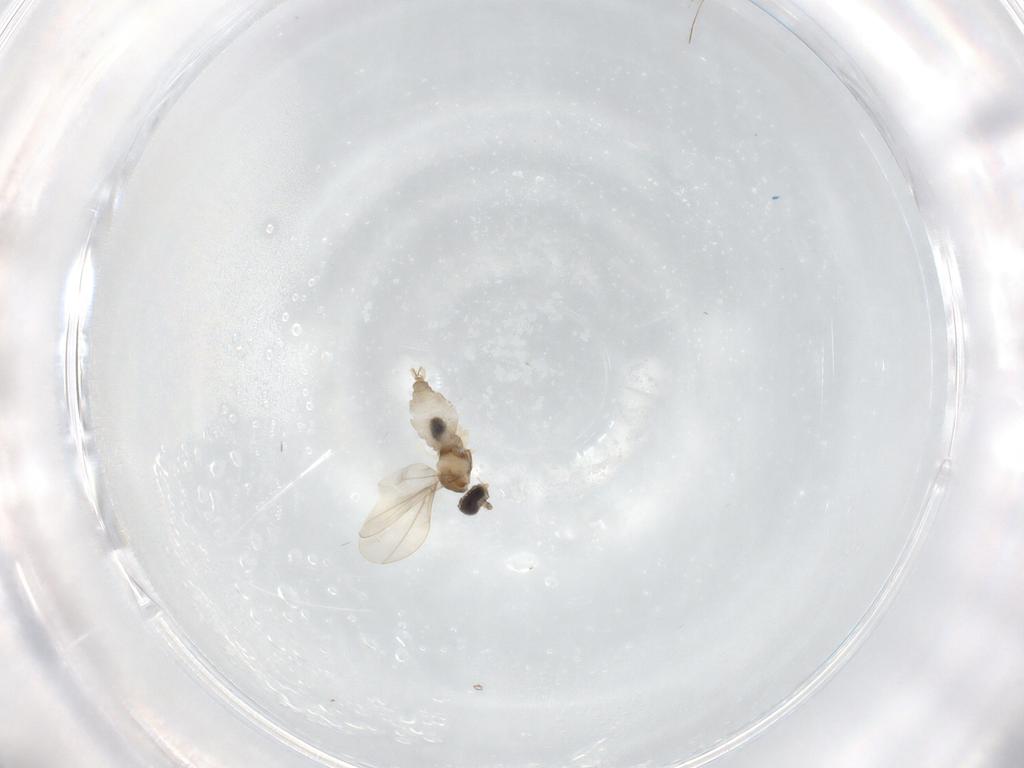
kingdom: Animalia
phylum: Arthropoda
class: Insecta
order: Diptera
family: Cecidomyiidae
